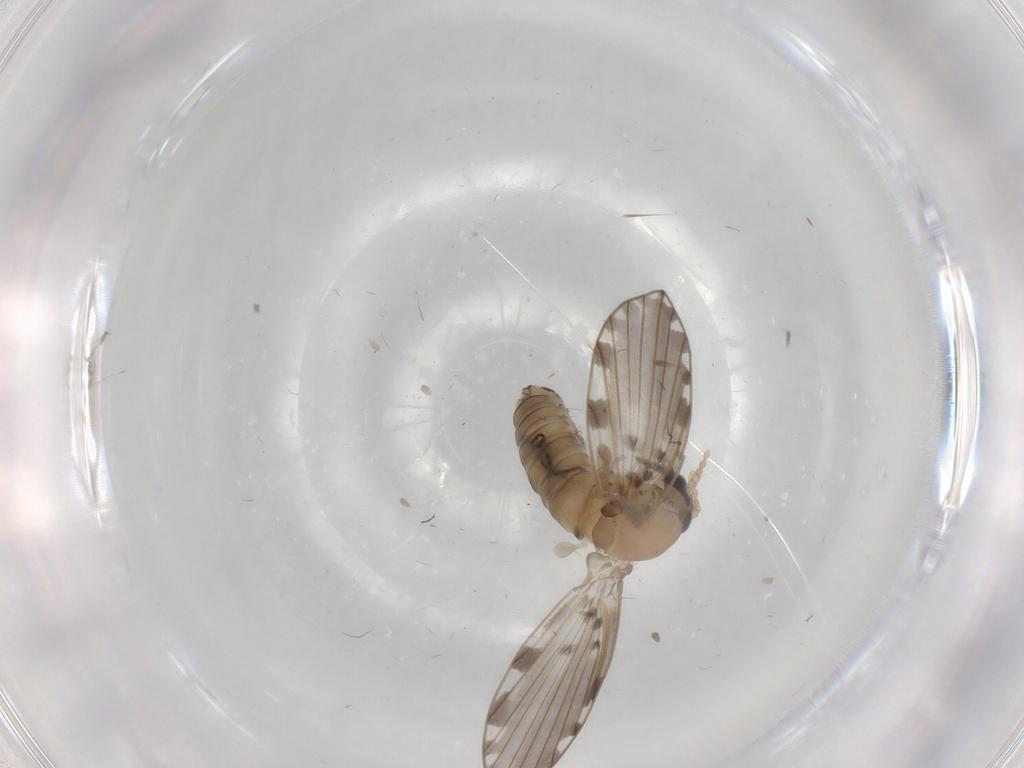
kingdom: Animalia
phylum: Arthropoda
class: Insecta
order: Diptera
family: Psychodidae
